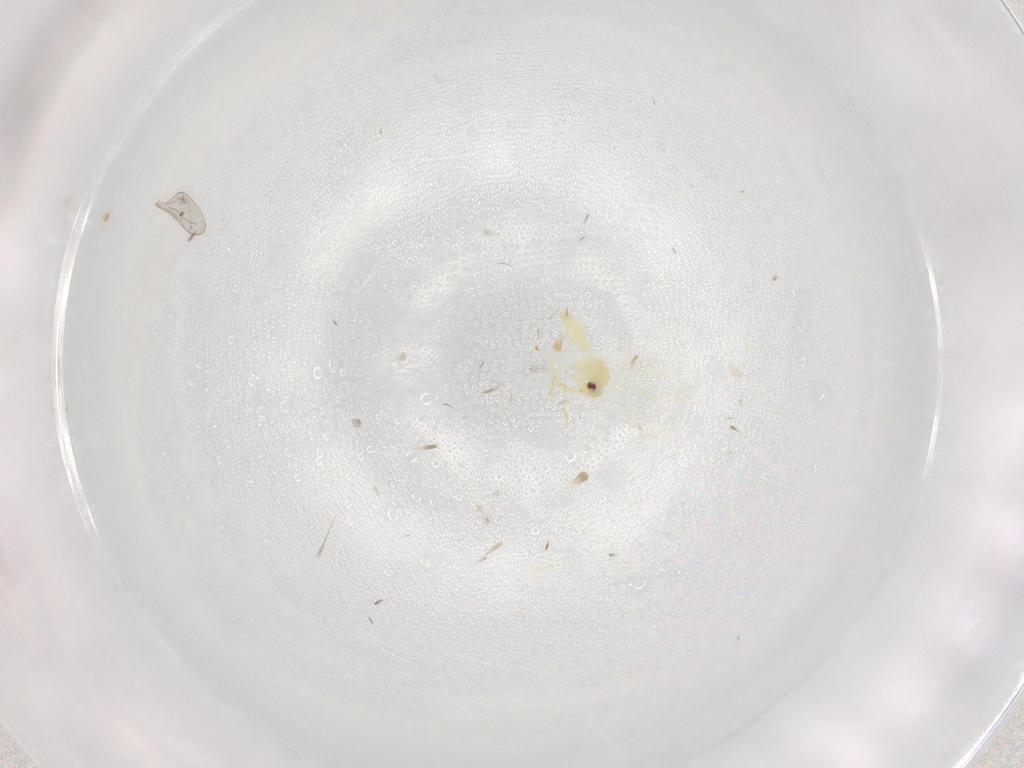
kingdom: Animalia
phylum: Arthropoda
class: Insecta
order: Hemiptera
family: Aleyrodidae
